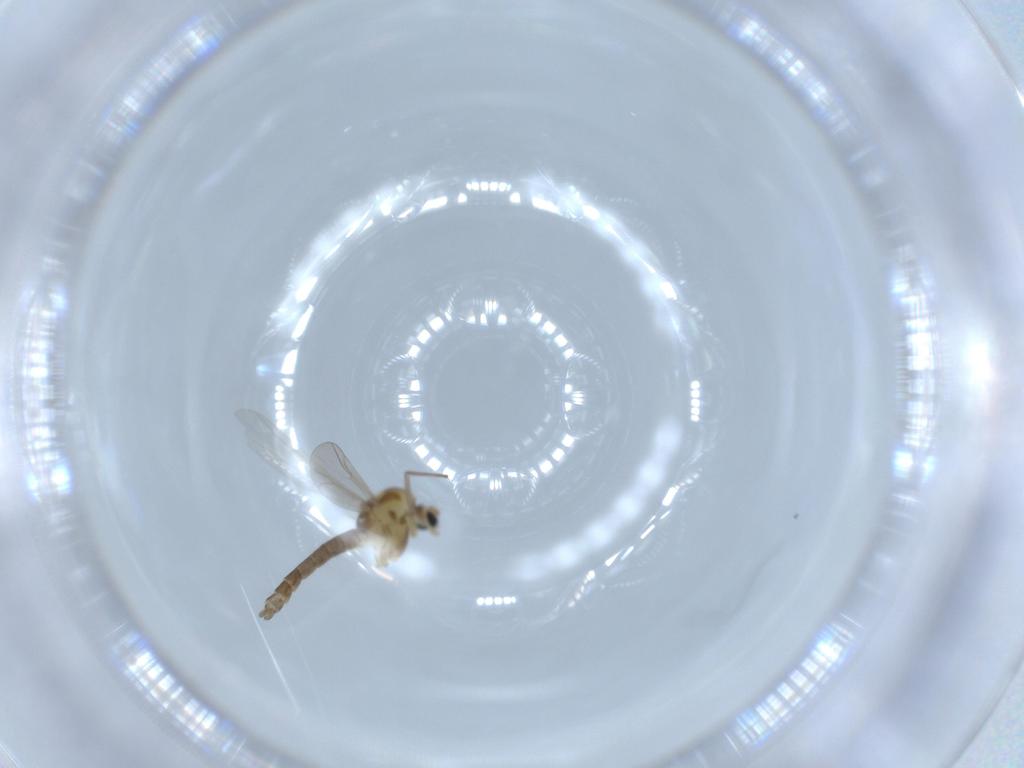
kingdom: Animalia
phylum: Arthropoda
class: Insecta
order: Diptera
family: Chironomidae
